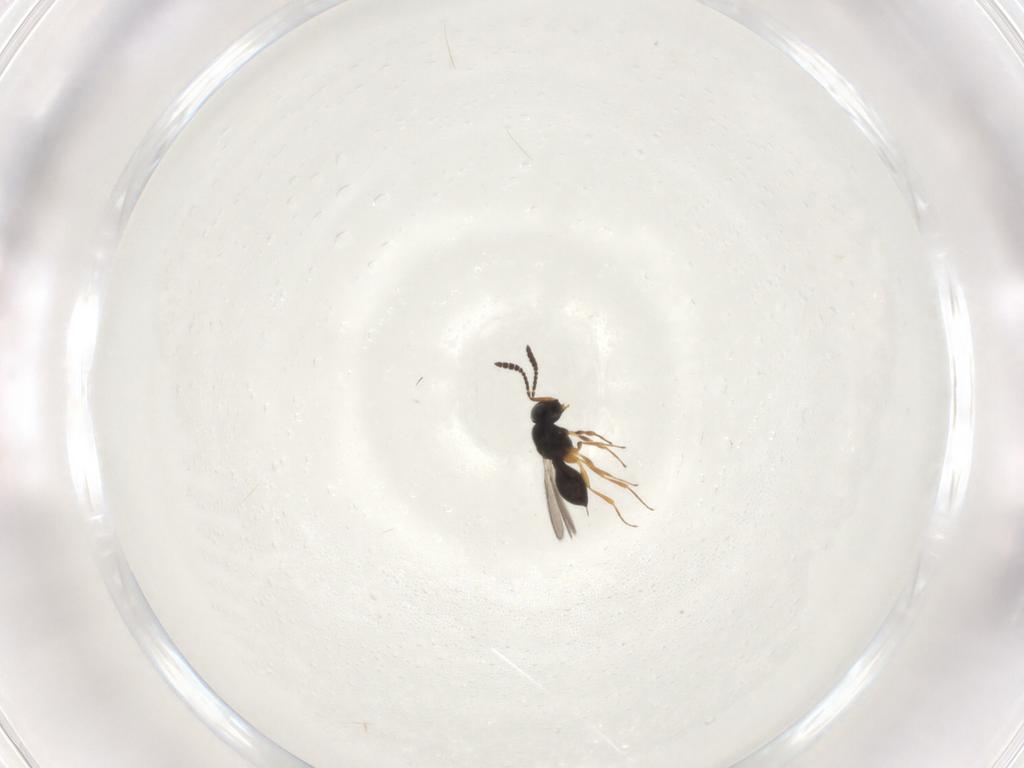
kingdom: Animalia
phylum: Arthropoda
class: Insecta
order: Hymenoptera
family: Scelionidae
